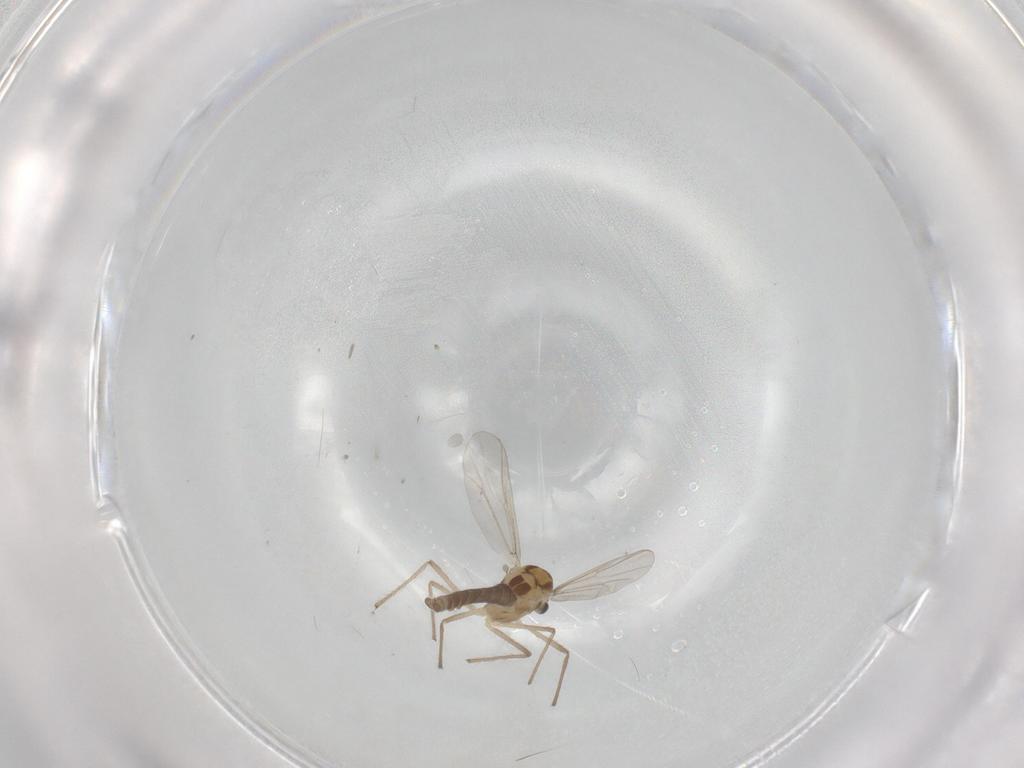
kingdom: Animalia
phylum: Arthropoda
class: Insecta
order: Diptera
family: Chironomidae
